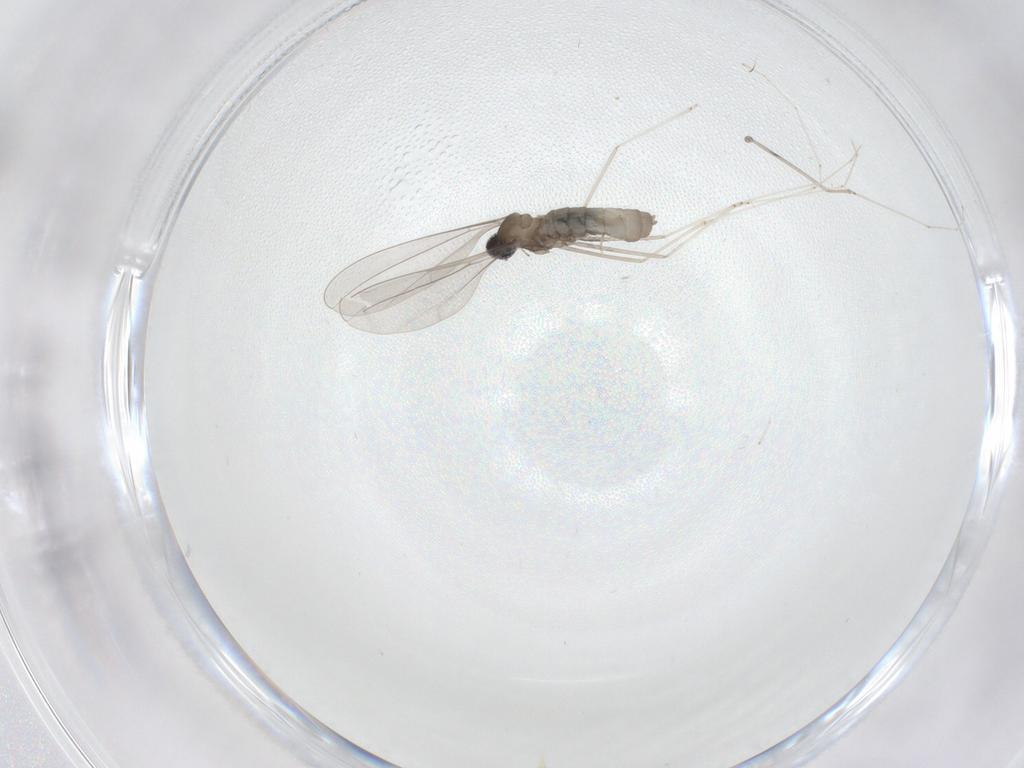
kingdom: Animalia
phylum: Arthropoda
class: Insecta
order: Diptera
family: Cecidomyiidae
